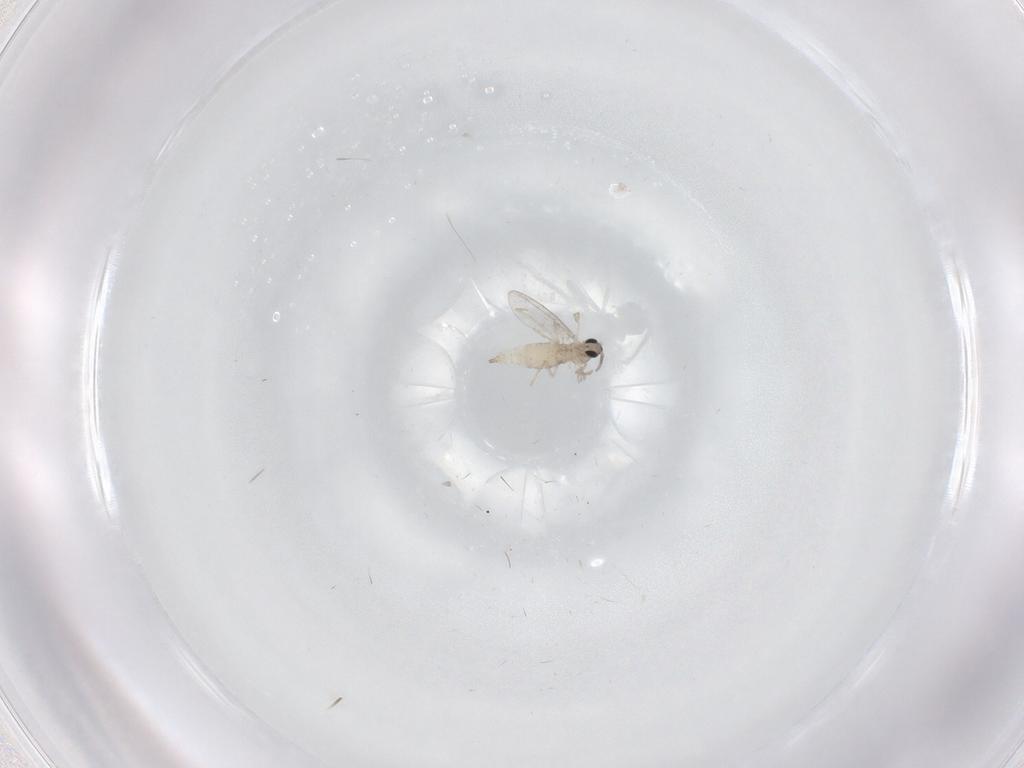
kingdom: Animalia
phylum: Arthropoda
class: Insecta
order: Diptera
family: Cecidomyiidae
